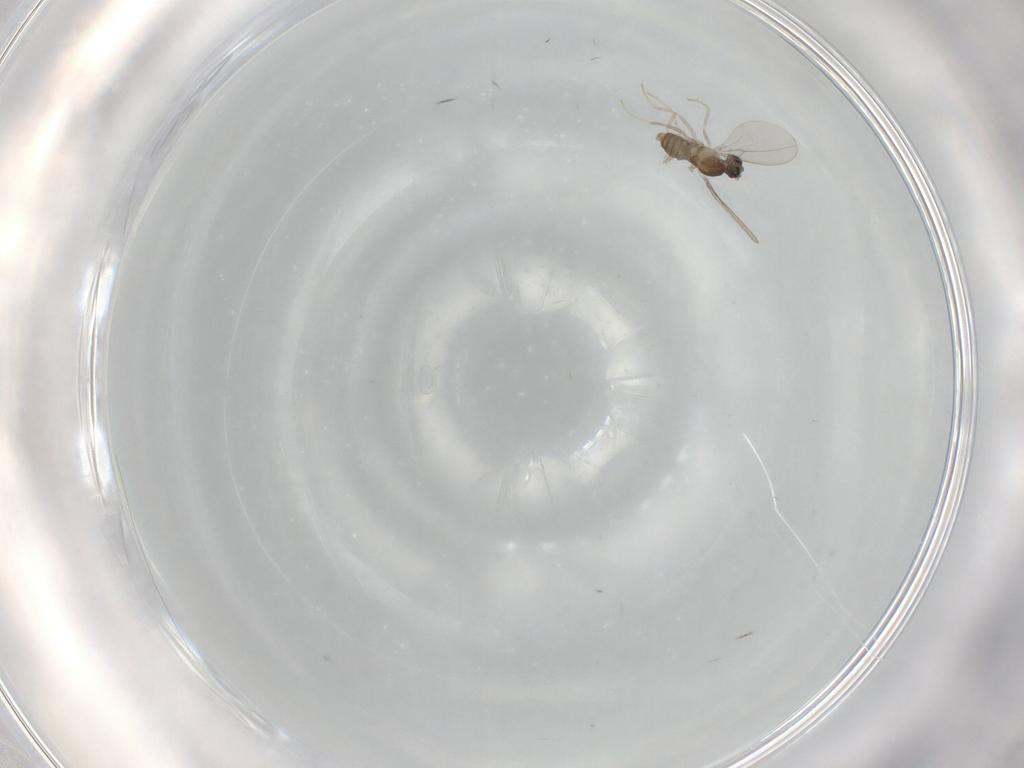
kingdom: Animalia
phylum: Arthropoda
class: Insecta
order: Diptera
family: Cecidomyiidae
